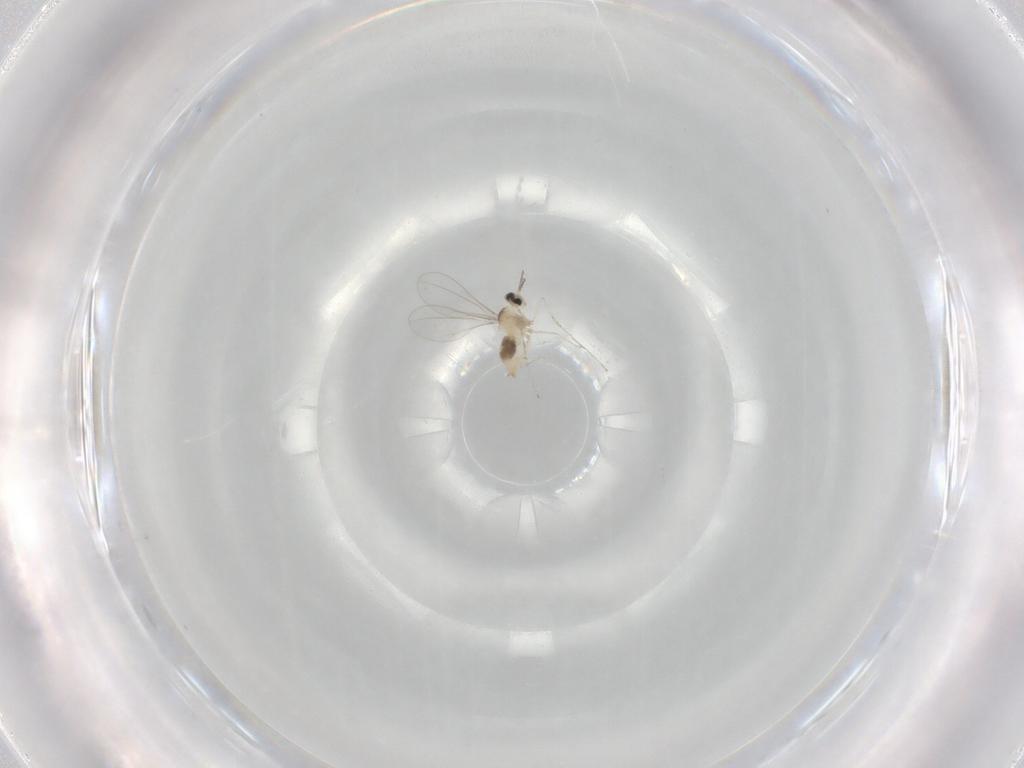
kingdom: Animalia
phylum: Arthropoda
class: Insecta
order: Diptera
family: Cecidomyiidae
